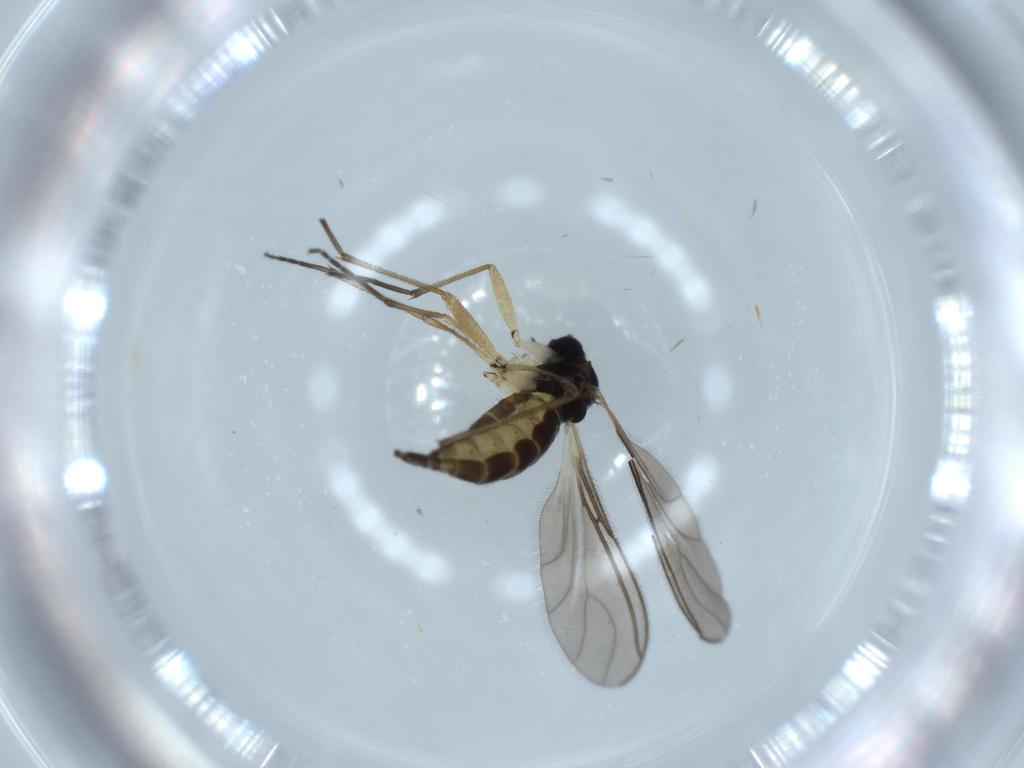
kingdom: Animalia
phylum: Arthropoda
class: Insecta
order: Diptera
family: Sciaridae
